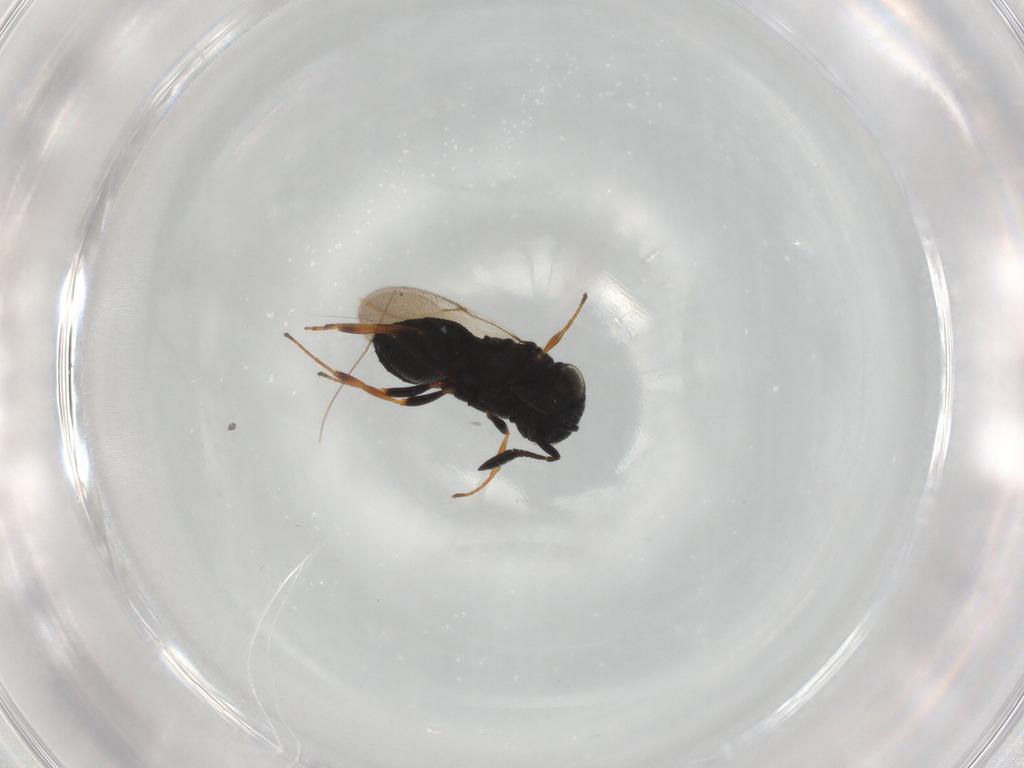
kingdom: Animalia
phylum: Arthropoda
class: Insecta
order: Hymenoptera
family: Scelionidae
